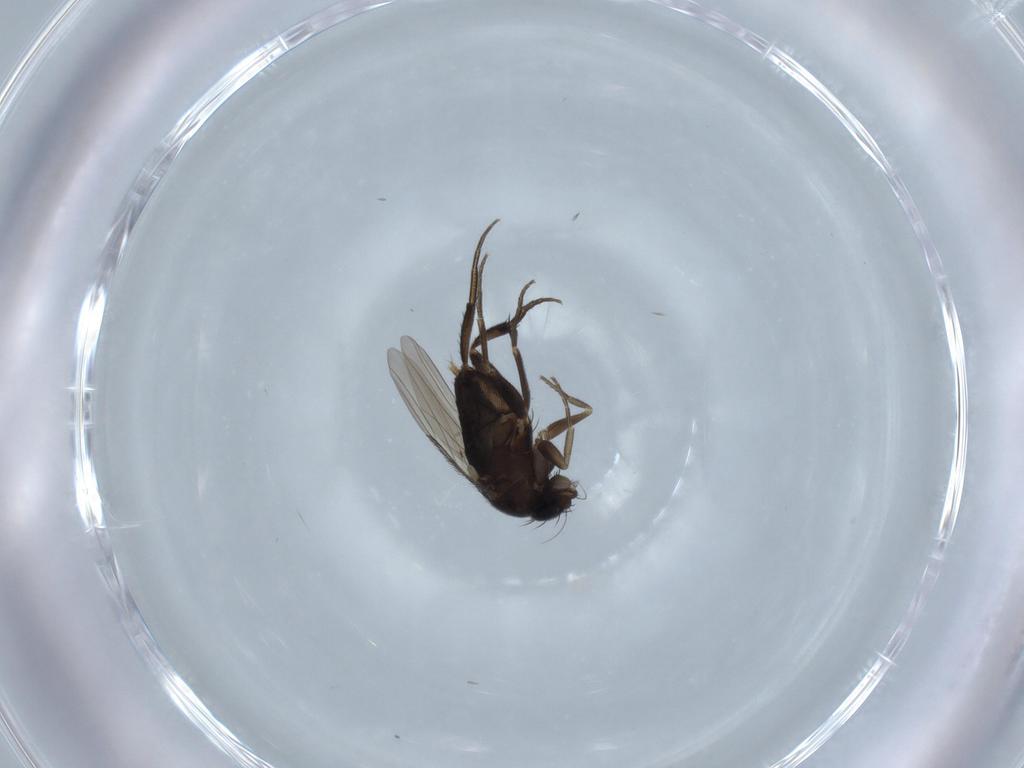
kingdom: Animalia
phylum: Arthropoda
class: Insecta
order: Diptera
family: Phoridae
